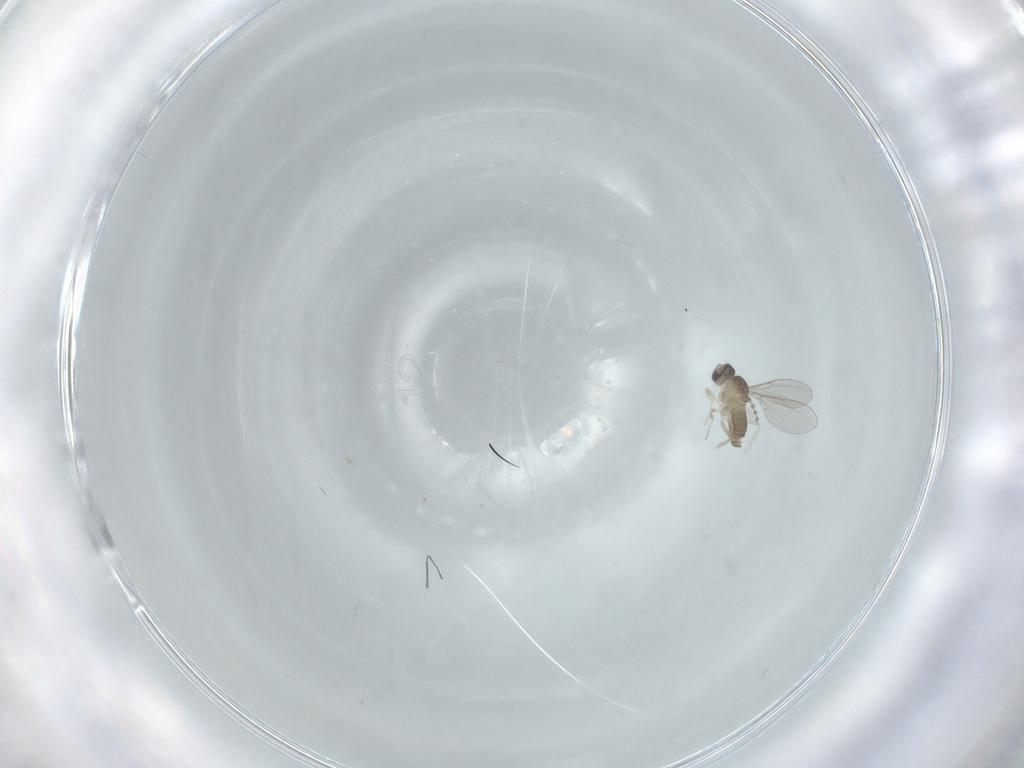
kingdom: Animalia
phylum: Arthropoda
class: Insecta
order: Diptera
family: Cecidomyiidae
